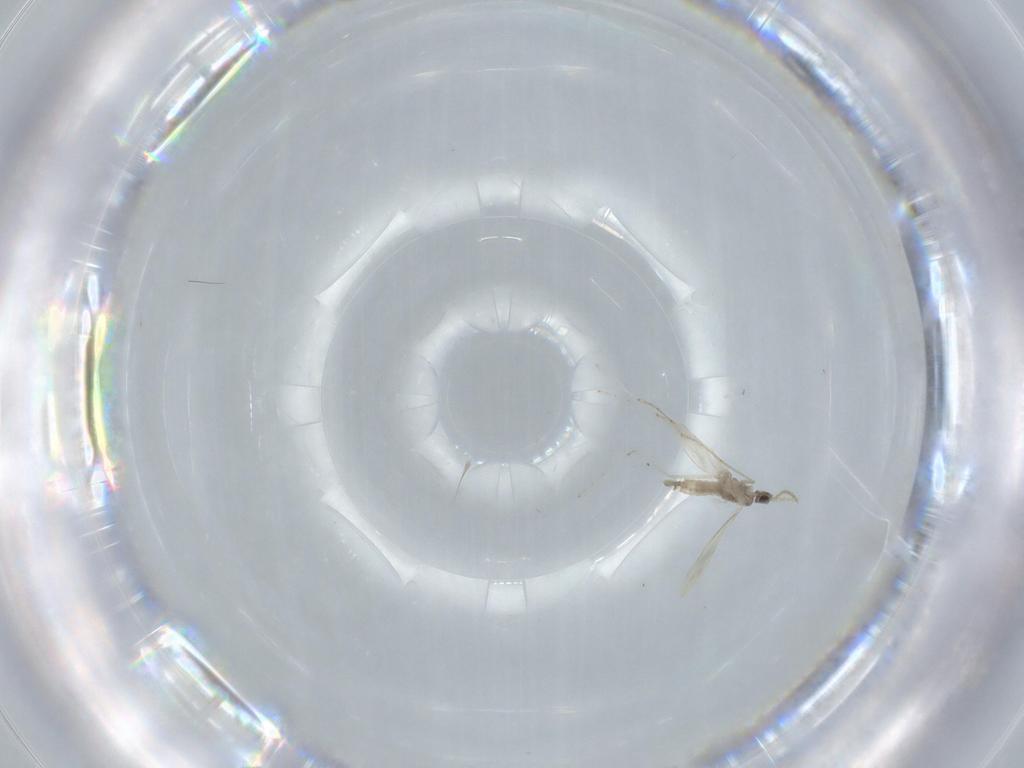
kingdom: Animalia
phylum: Arthropoda
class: Insecta
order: Diptera
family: Cecidomyiidae
